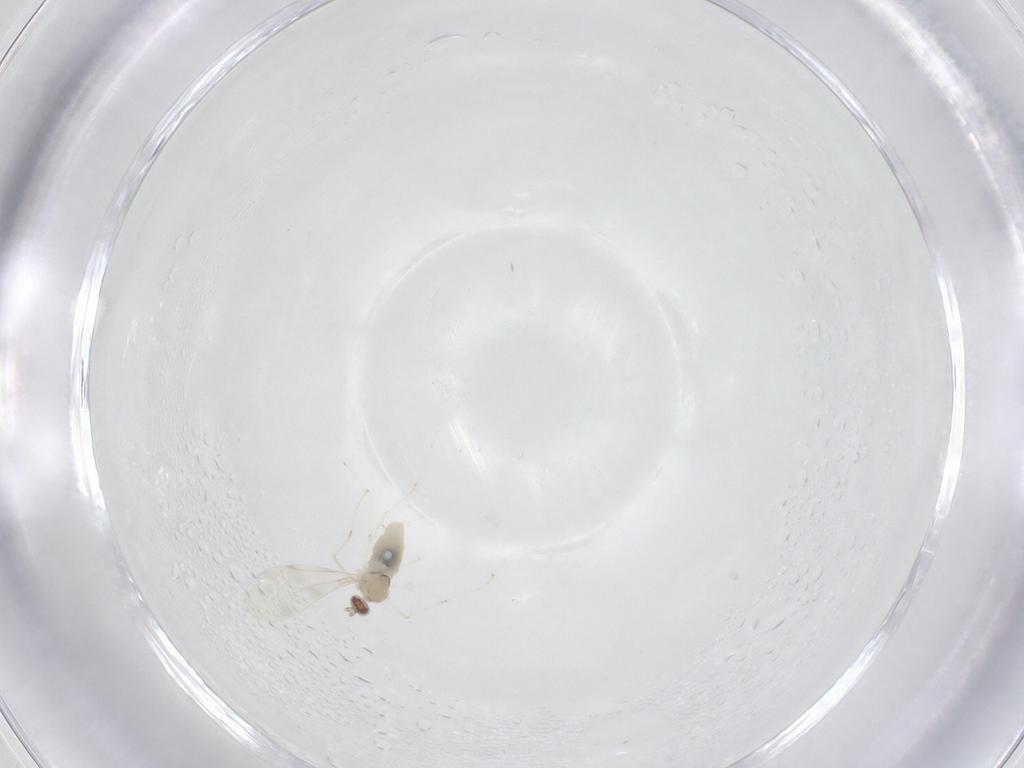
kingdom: Animalia
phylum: Arthropoda
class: Insecta
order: Diptera
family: Cecidomyiidae
